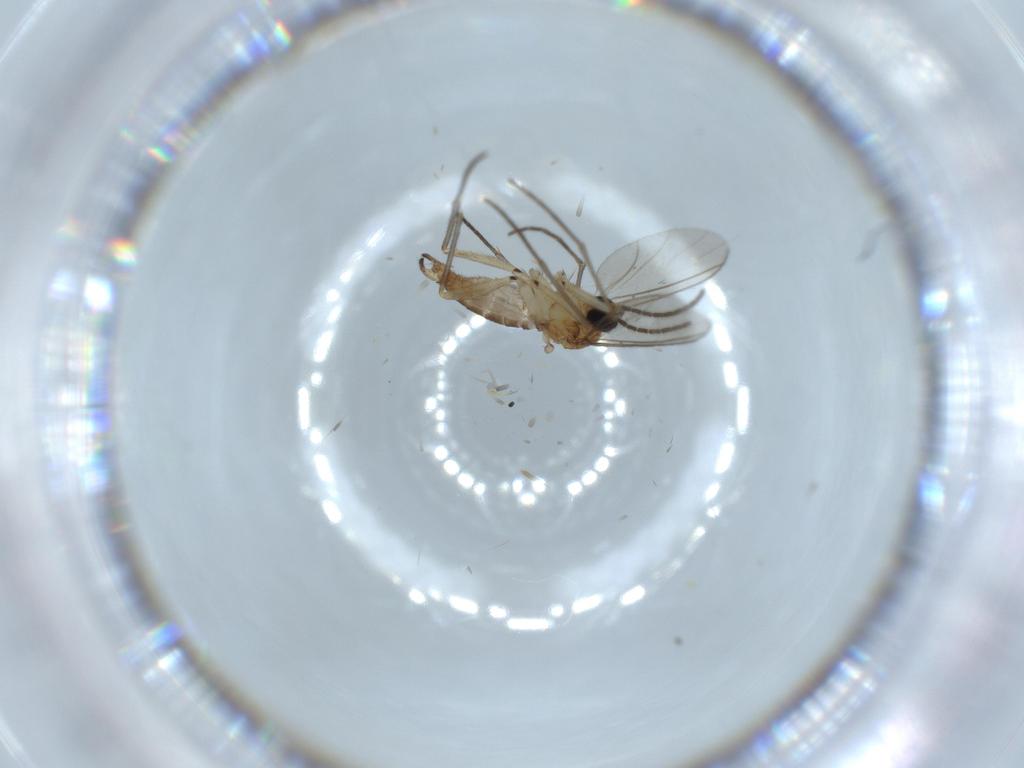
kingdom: Animalia
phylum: Arthropoda
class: Insecta
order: Diptera
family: Sciaridae
